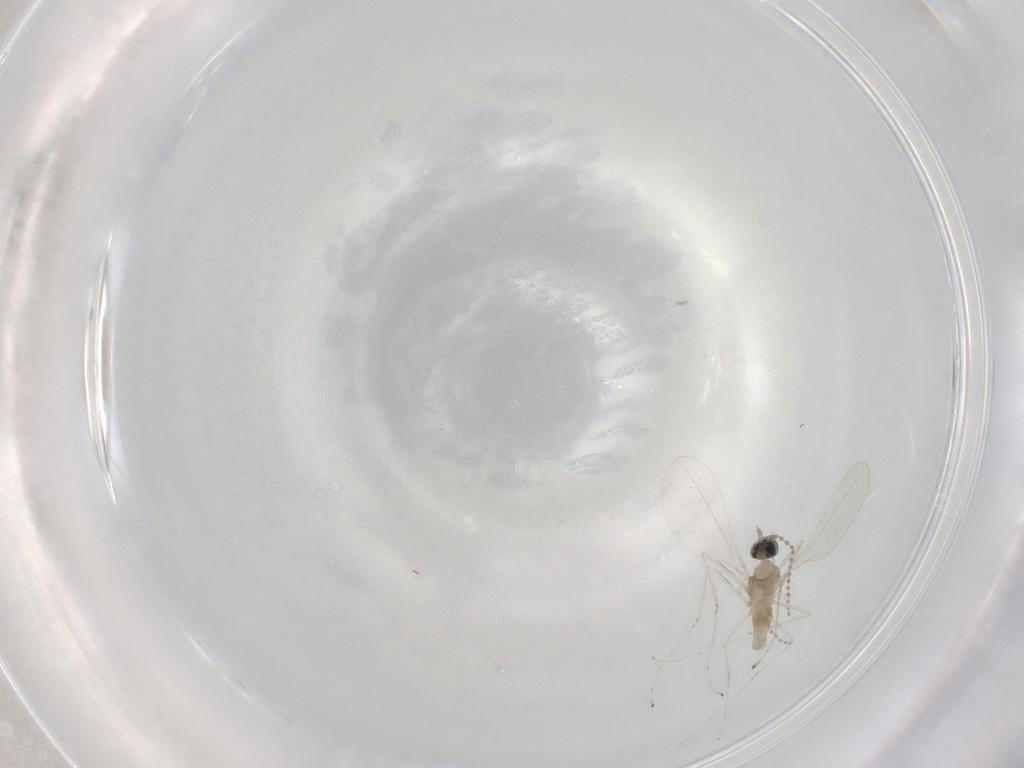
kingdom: Animalia
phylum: Arthropoda
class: Insecta
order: Diptera
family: Cecidomyiidae
